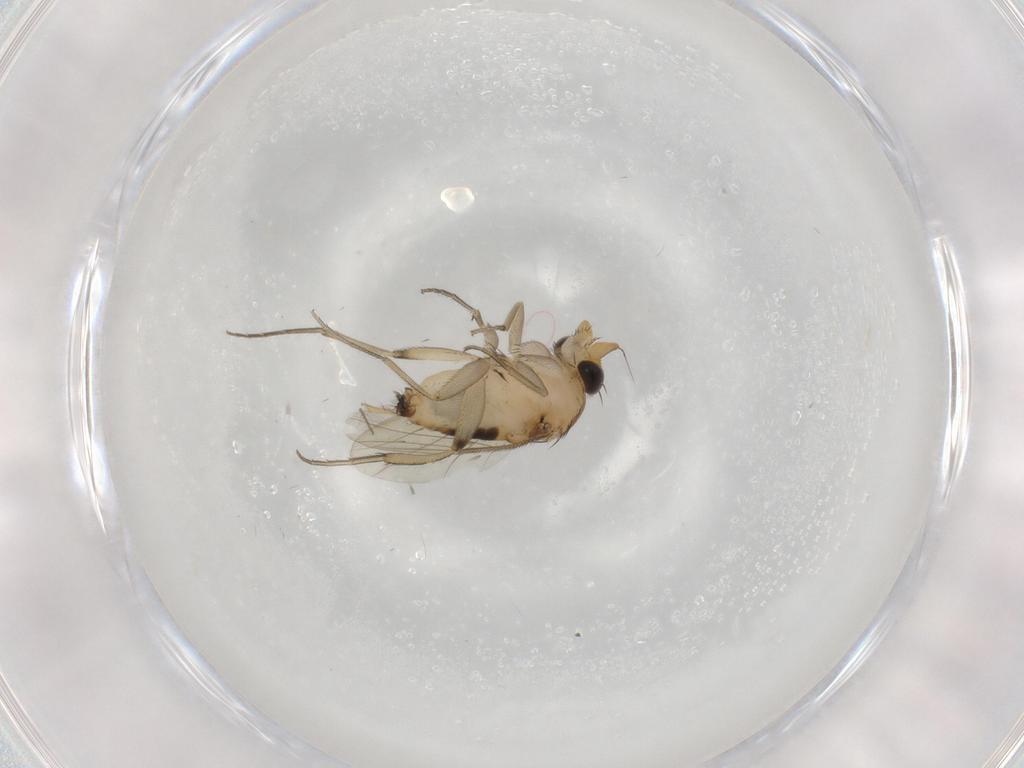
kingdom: Animalia
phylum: Arthropoda
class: Insecta
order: Diptera
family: Phoridae
